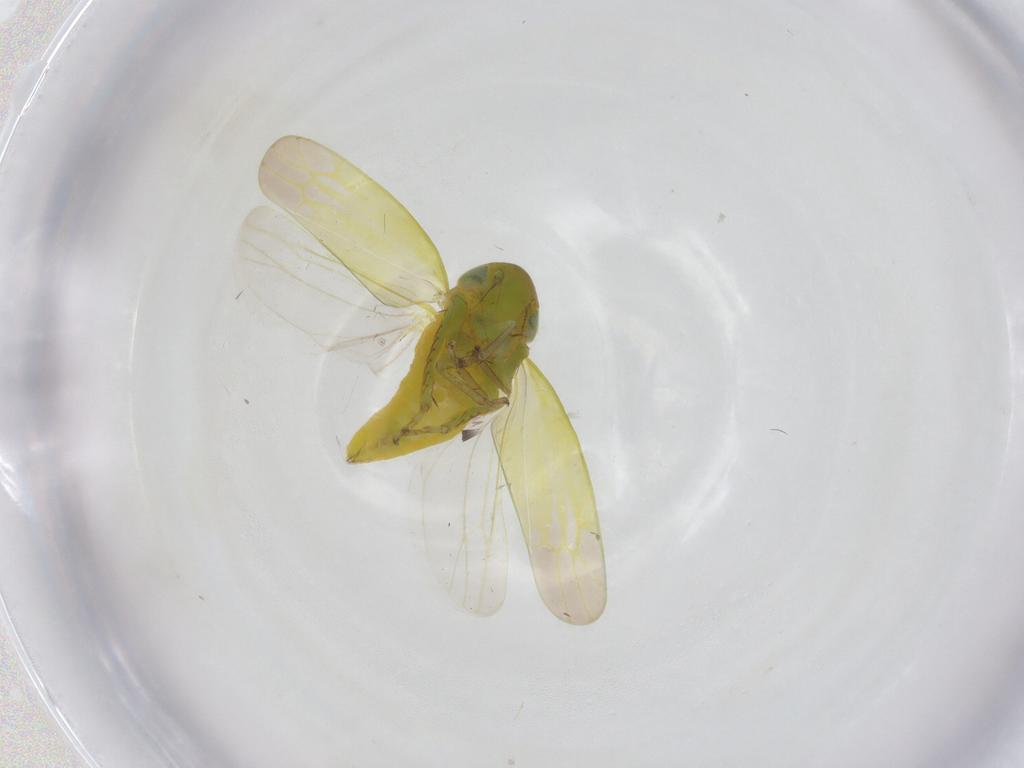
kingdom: Animalia
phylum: Arthropoda
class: Insecta
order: Hemiptera
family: Cicadellidae
